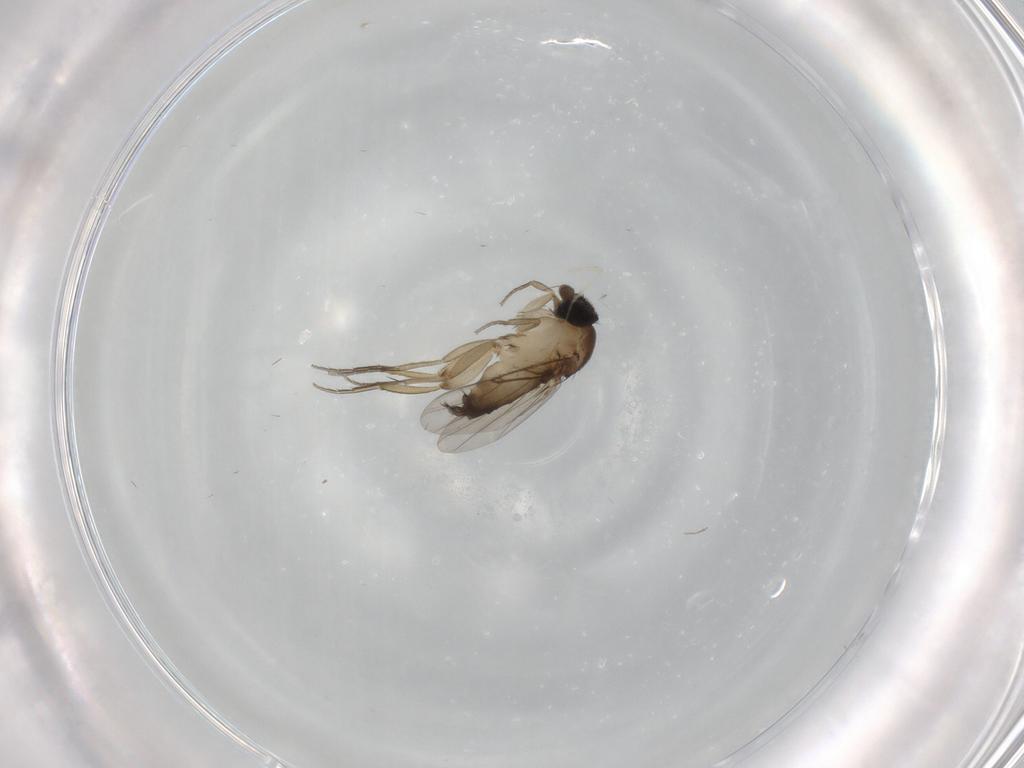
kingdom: Animalia
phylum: Arthropoda
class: Insecta
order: Diptera
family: Phoridae
